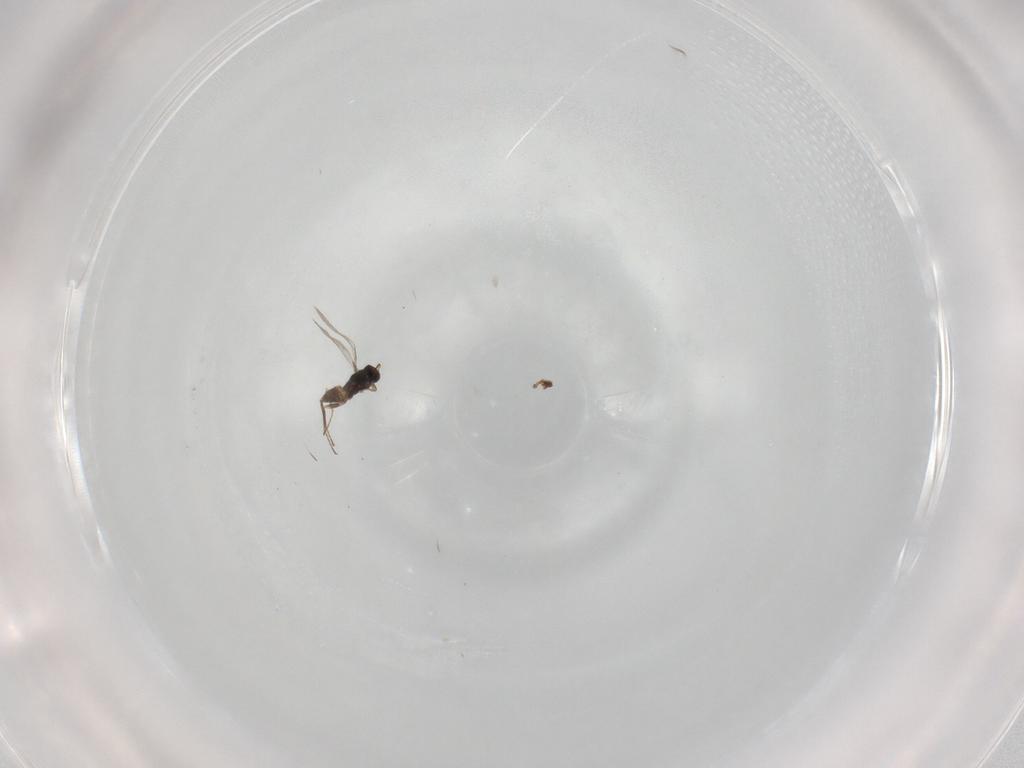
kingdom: Animalia
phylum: Arthropoda
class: Insecta
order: Hymenoptera
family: Mymaridae
